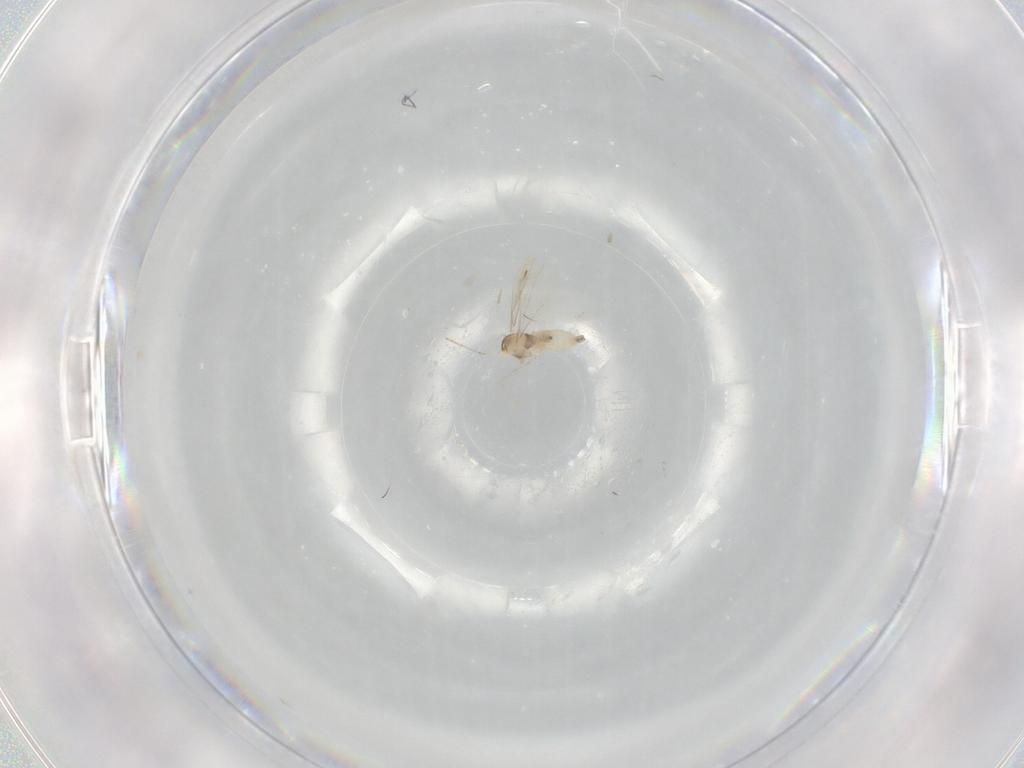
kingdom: Animalia
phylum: Arthropoda
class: Insecta
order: Diptera
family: Cecidomyiidae
